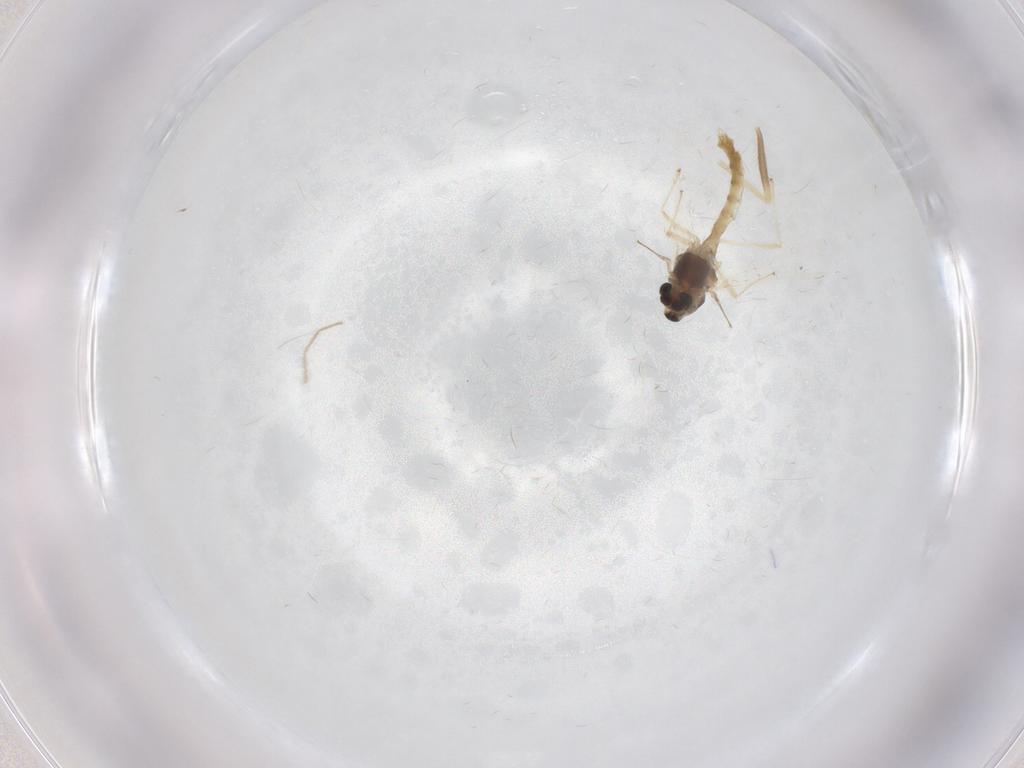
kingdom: Animalia
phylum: Arthropoda
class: Insecta
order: Diptera
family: Chironomidae
